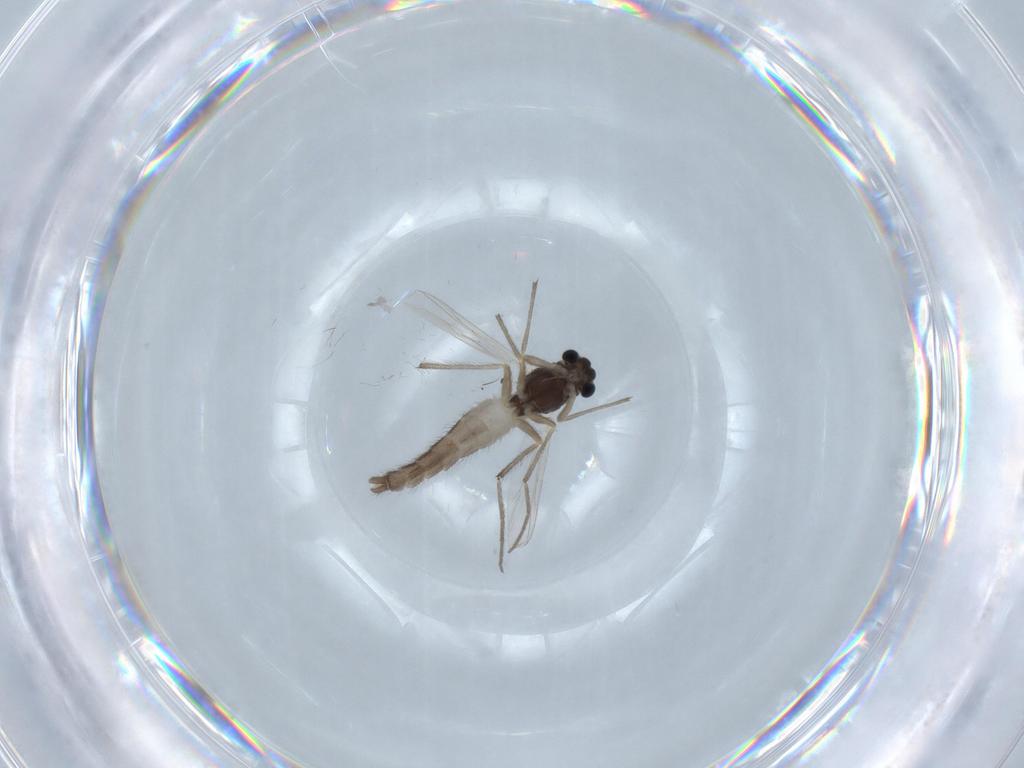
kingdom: Animalia
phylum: Arthropoda
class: Insecta
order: Diptera
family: Chironomidae
